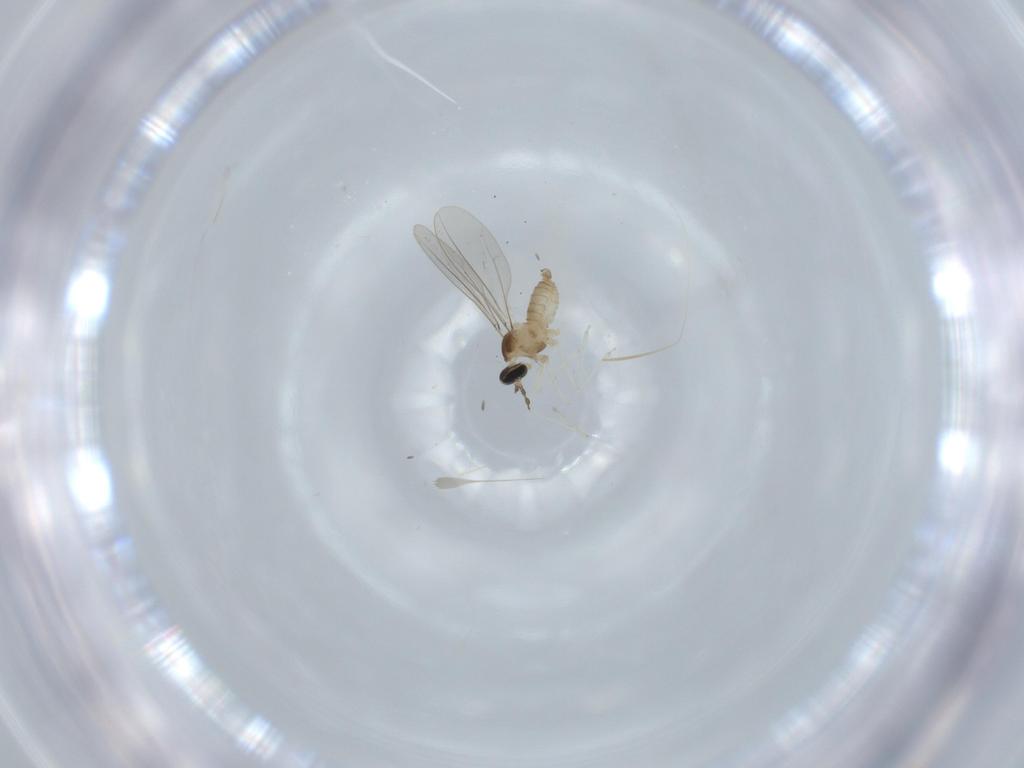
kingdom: Animalia
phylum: Arthropoda
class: Insecta
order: Diptera
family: Cecidomyiidae
